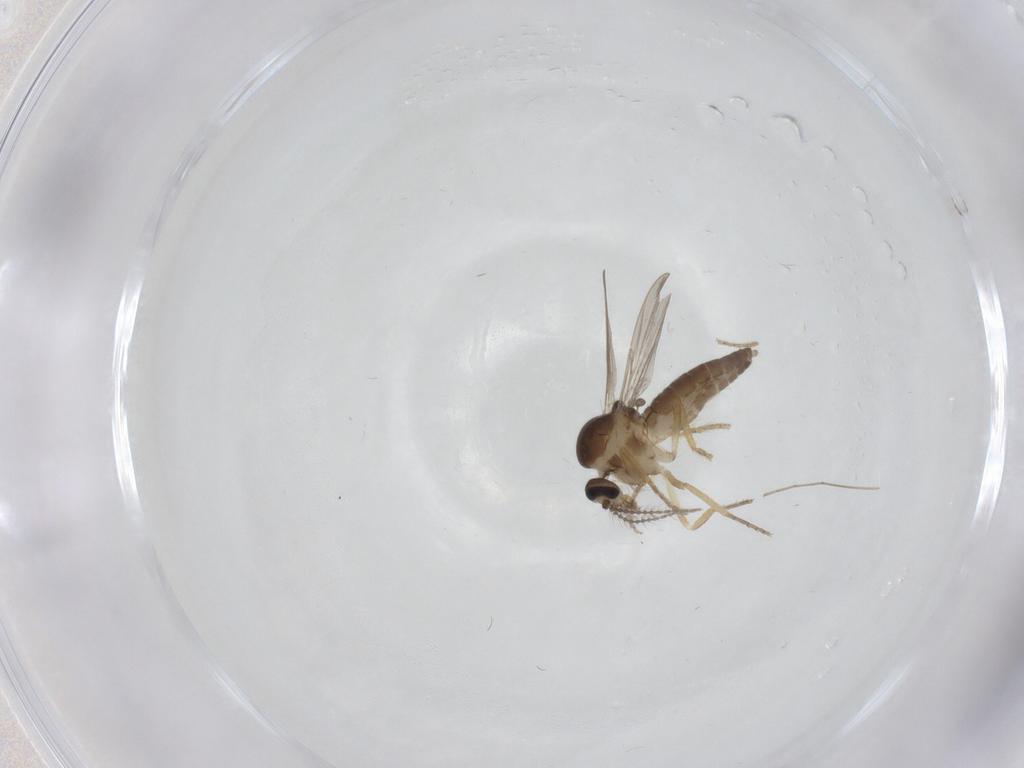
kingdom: Animalia
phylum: Arthropoda
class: Insecta
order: Diptera
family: Ceratopogonidae
